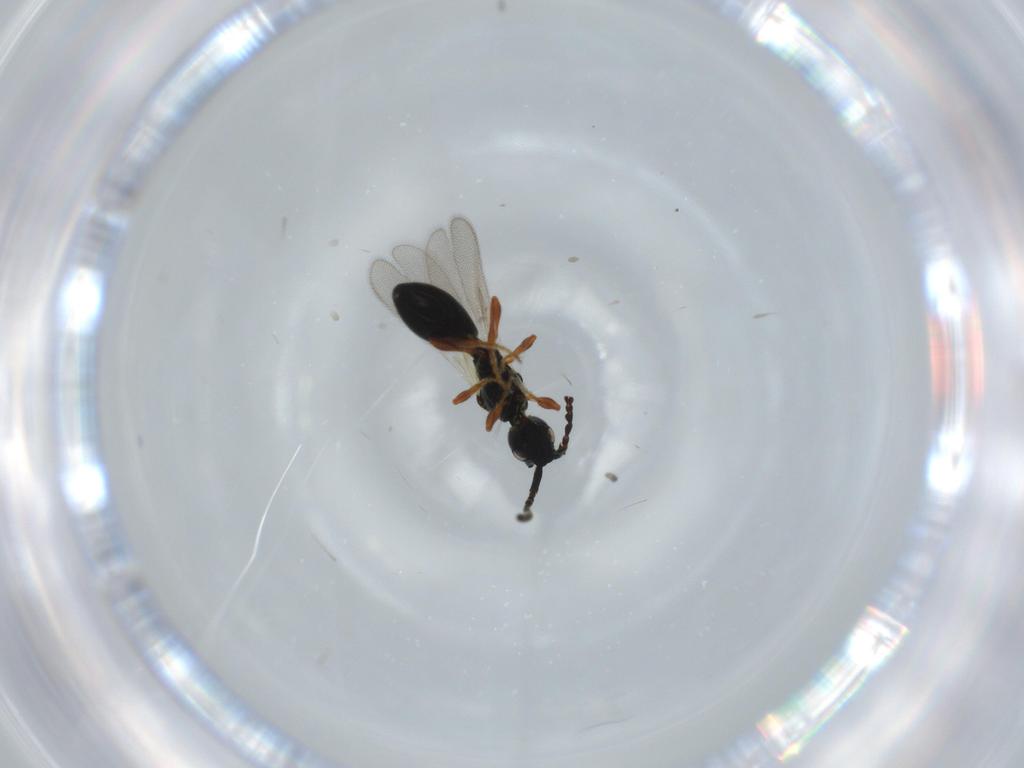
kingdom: Animalia
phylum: Arthropoda
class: Insecta
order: Hymenoptera
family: Diapriidae
